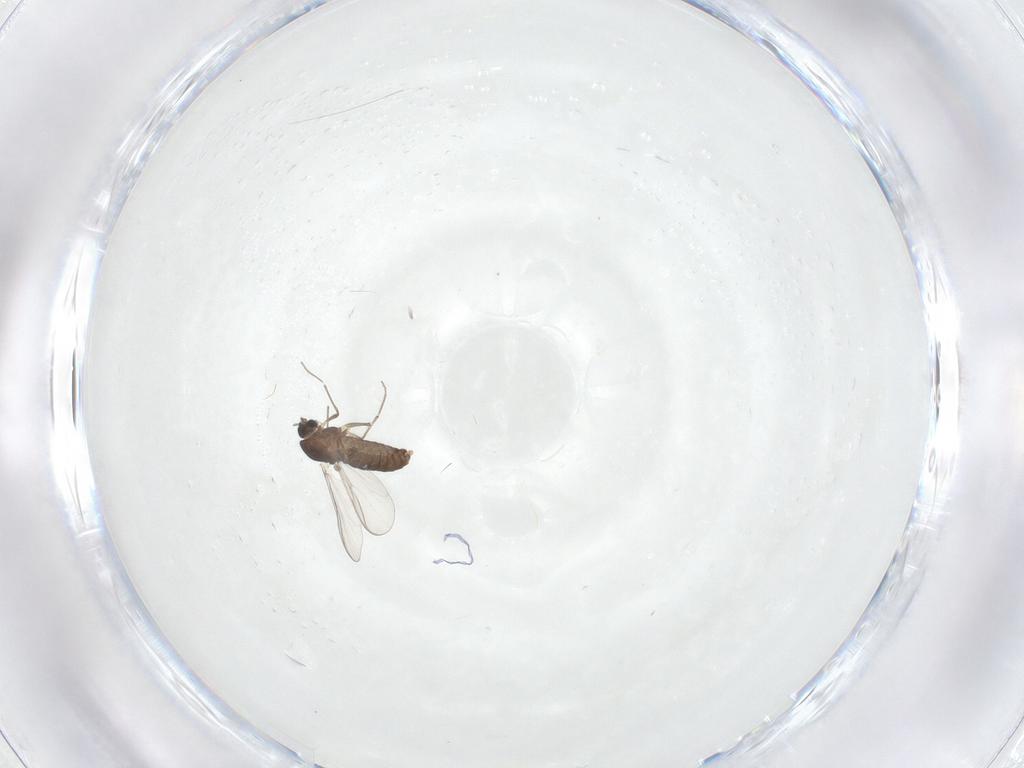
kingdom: Animalia
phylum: Arthropoda
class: Insecta
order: Diptera
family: Chironomidae
